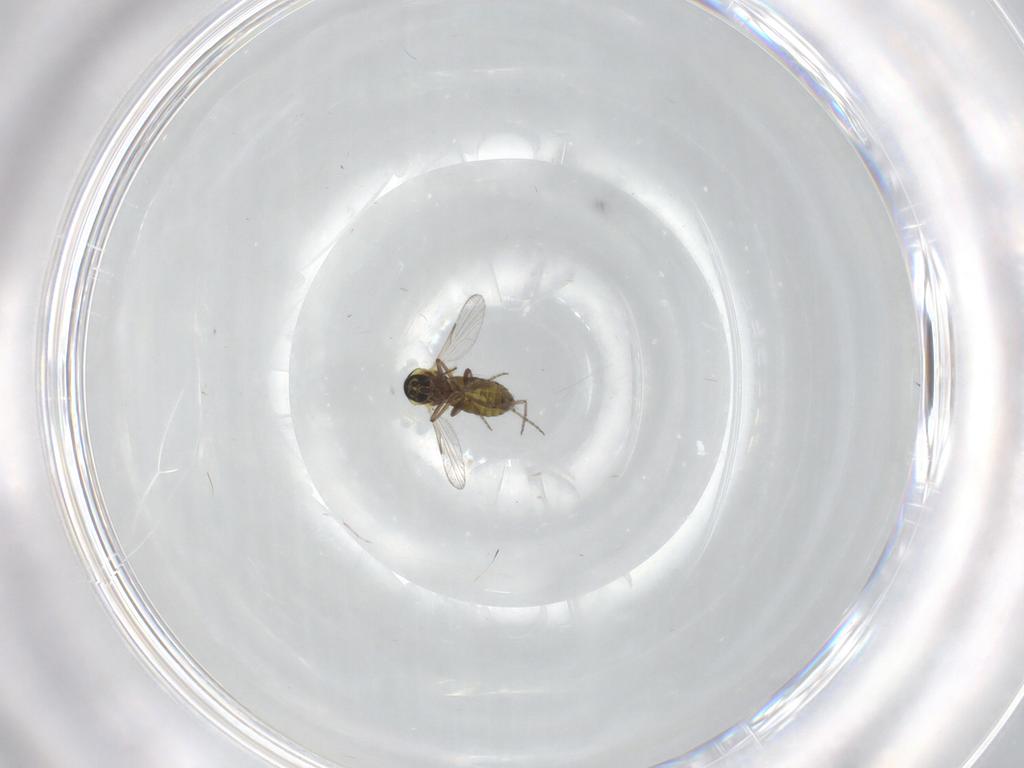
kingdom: Animalia
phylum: Arthropoda
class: Insecta
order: Diptera
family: Ceratopogonidae
